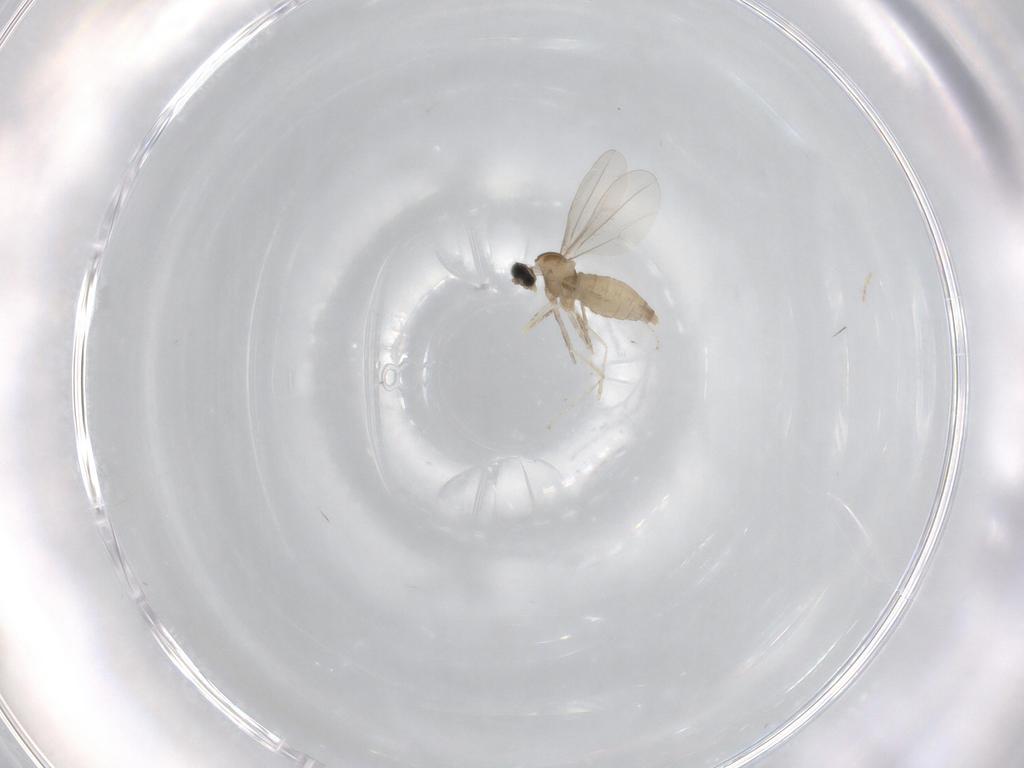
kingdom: Animalia
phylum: Arthropoda
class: Insecta
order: Diptera
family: Cecidomyiidae
